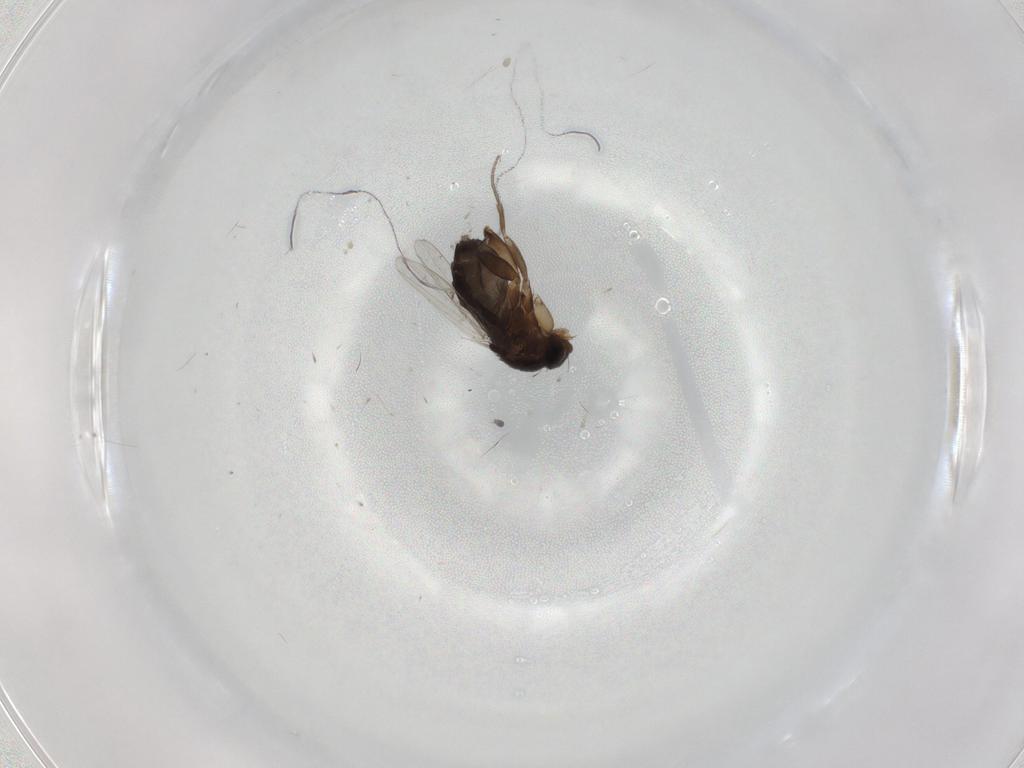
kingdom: Animalia
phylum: Arthropoda
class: Insecta
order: Diptera
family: Phoridae
